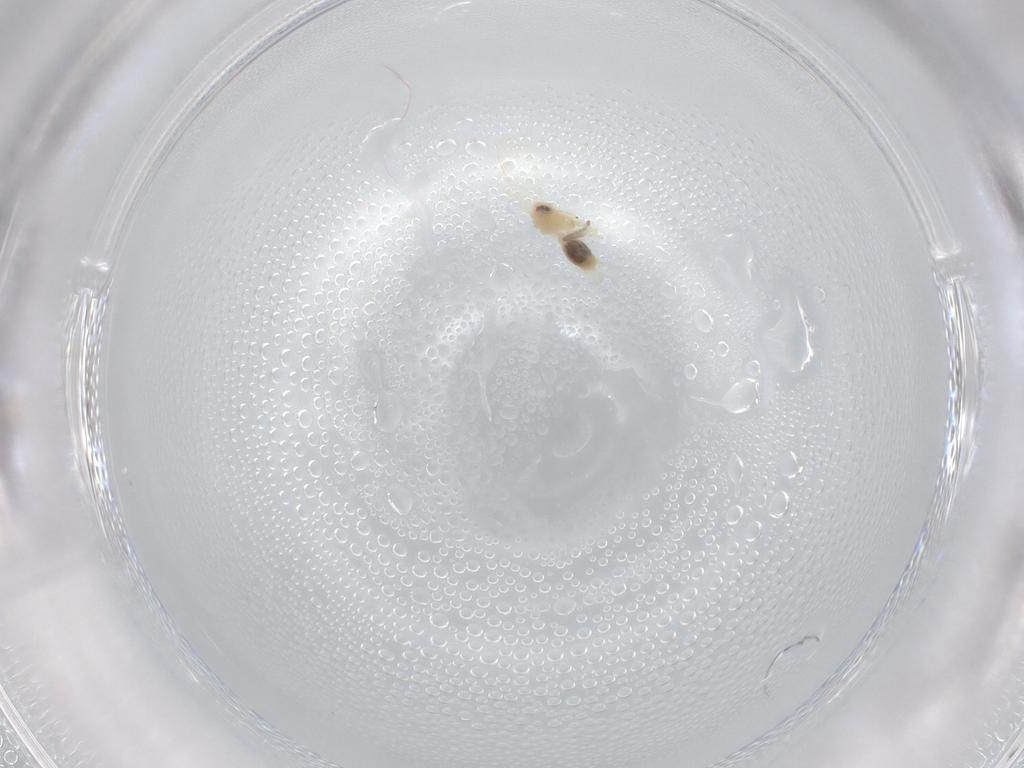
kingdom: Animalia
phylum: Arthropoda
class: Insecta
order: Hemiptera
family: Aleyrodidae
